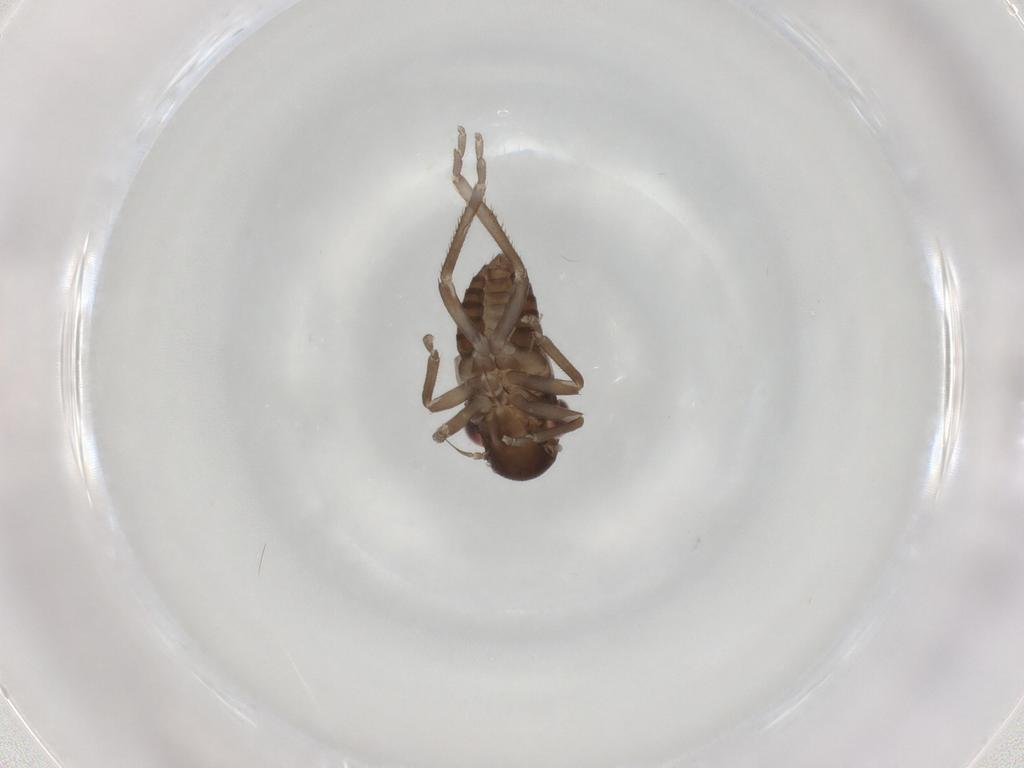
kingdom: Animalia
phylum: Arthropoda
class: Insecta
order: Hemiptera
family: Cicadellidae
